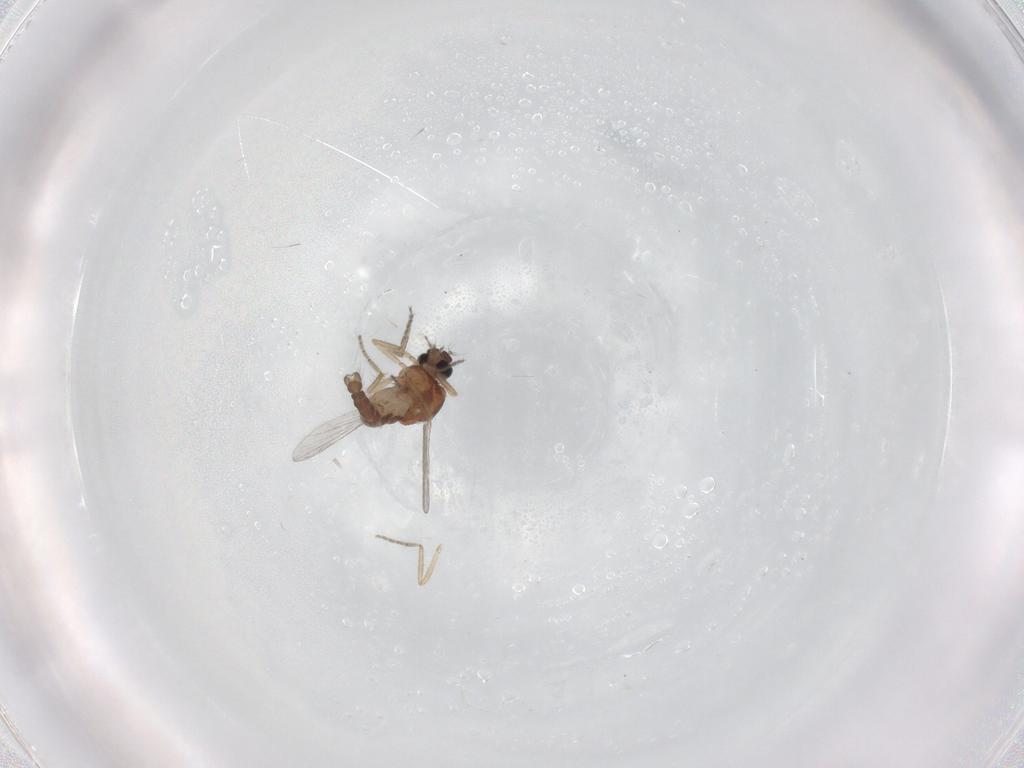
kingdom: Animalia
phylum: Arthropoda
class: Insecta
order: Diptera
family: Ceratopogonidae
